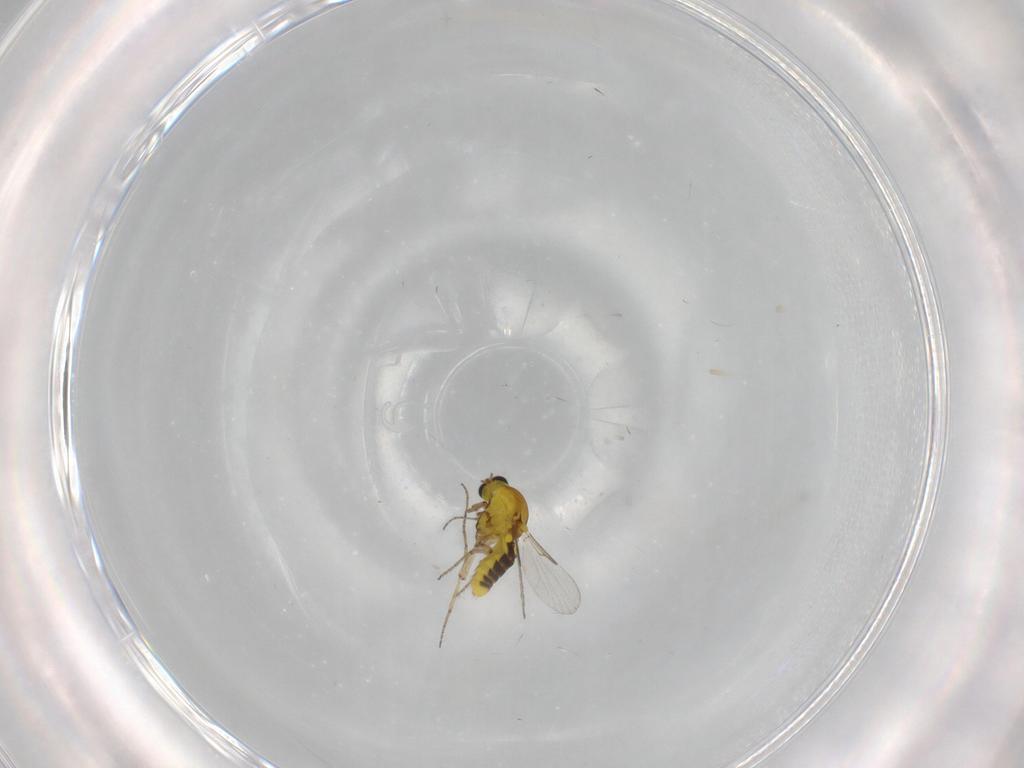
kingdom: Animalia
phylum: Arthropoda
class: Insecta
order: Diptera
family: Ceratopogonidae
